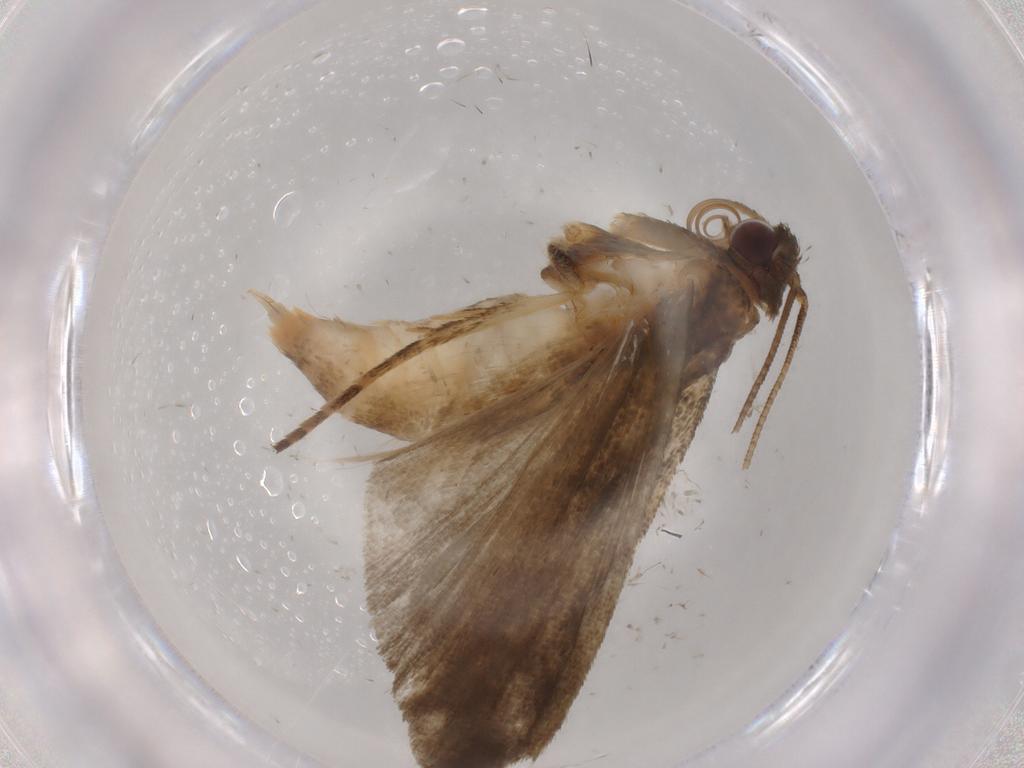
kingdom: Animalia
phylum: Arthropoda
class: Insecta
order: Lepidoptera
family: Noctuidae
